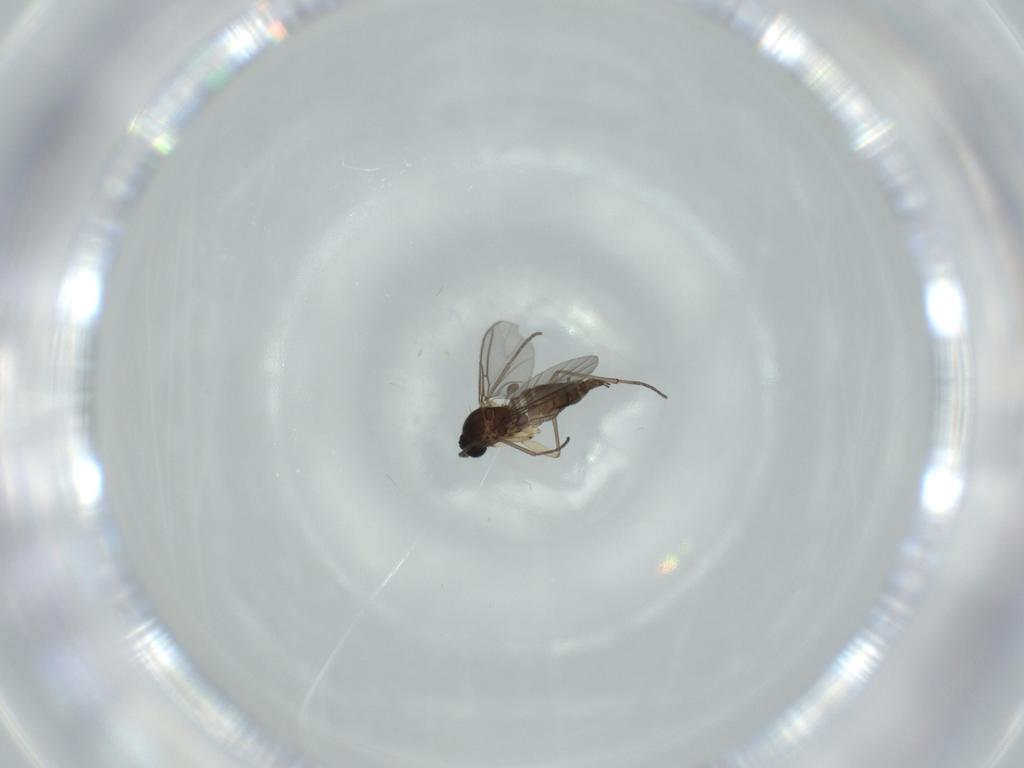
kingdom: Animalia
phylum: Arthropoda
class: Insecta
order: Diptera
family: Sciaridae
